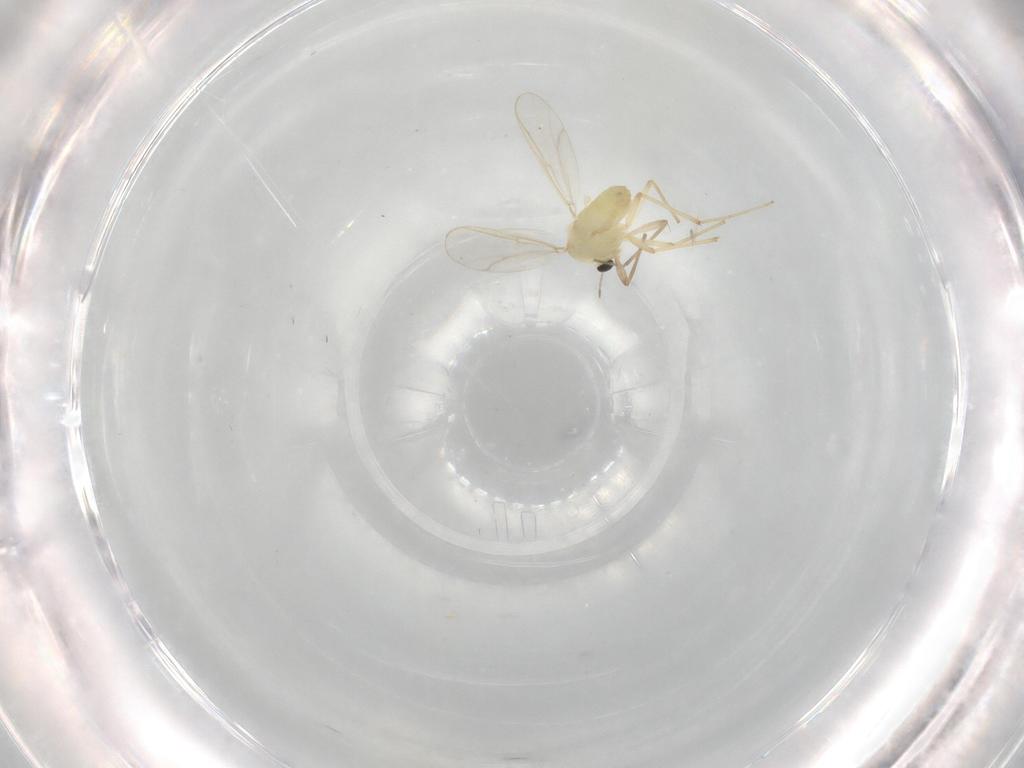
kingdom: Animalia
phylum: Arthropoda
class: Insecta
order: Diptera
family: Chironomidae
